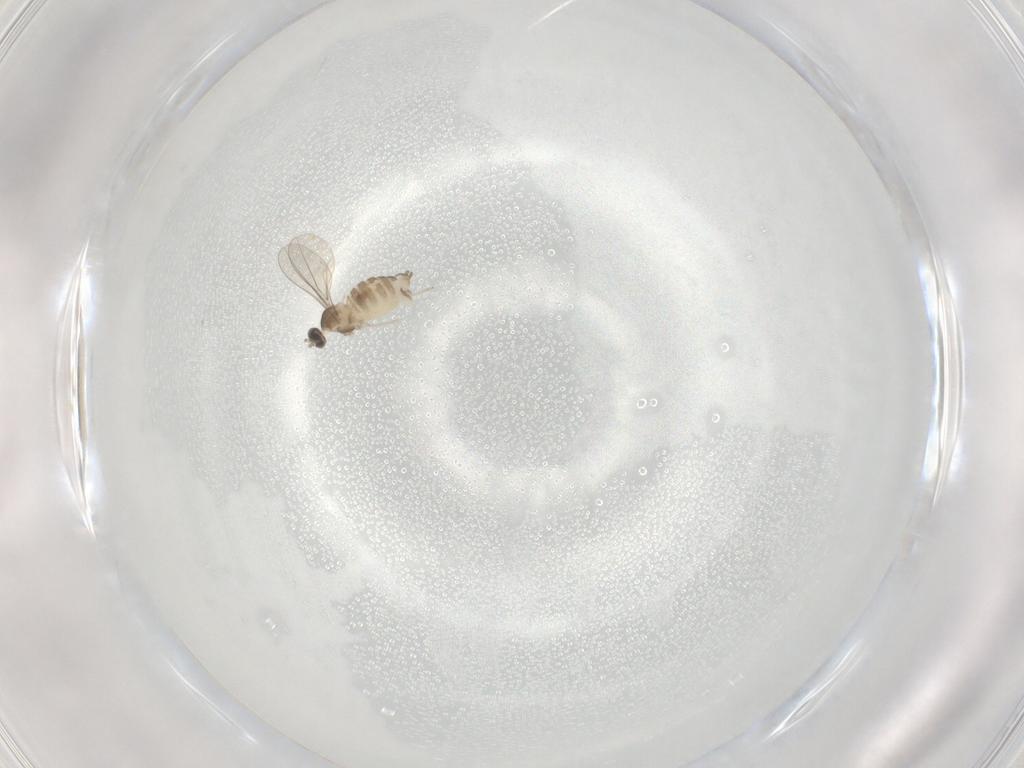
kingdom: Animalia
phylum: Arthropoda
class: Insecta
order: Diptera
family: Cecidomyiidae
